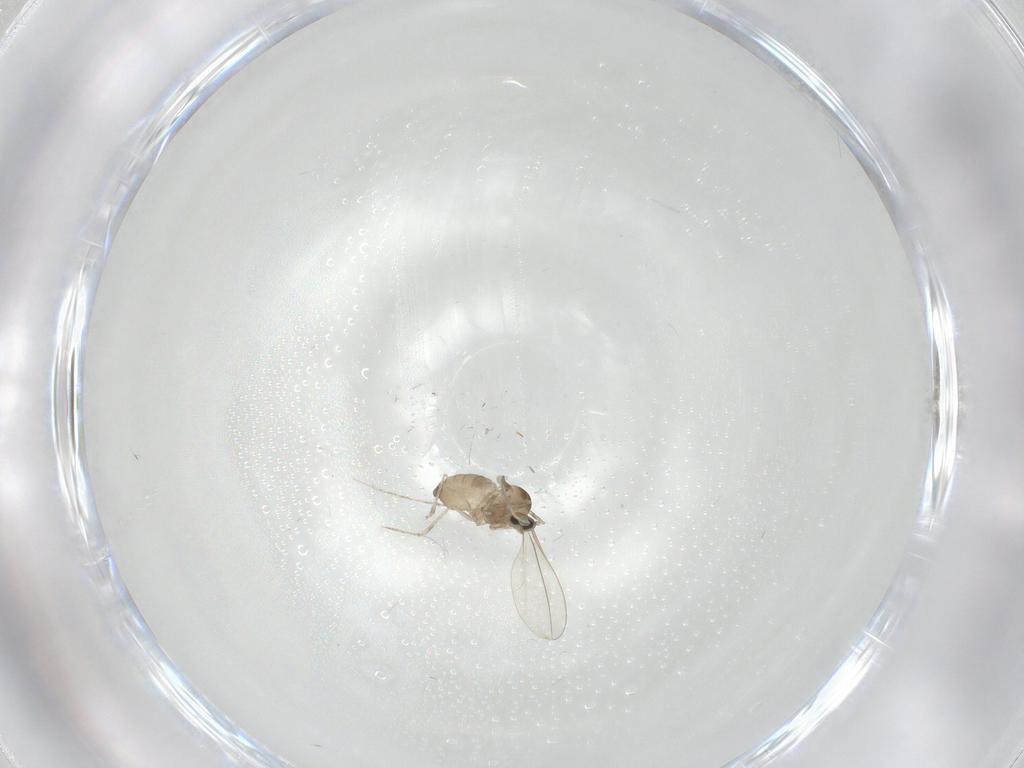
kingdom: Animalia
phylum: Arthropoda
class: Insecta
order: Diptera
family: Cecidomyiidae
